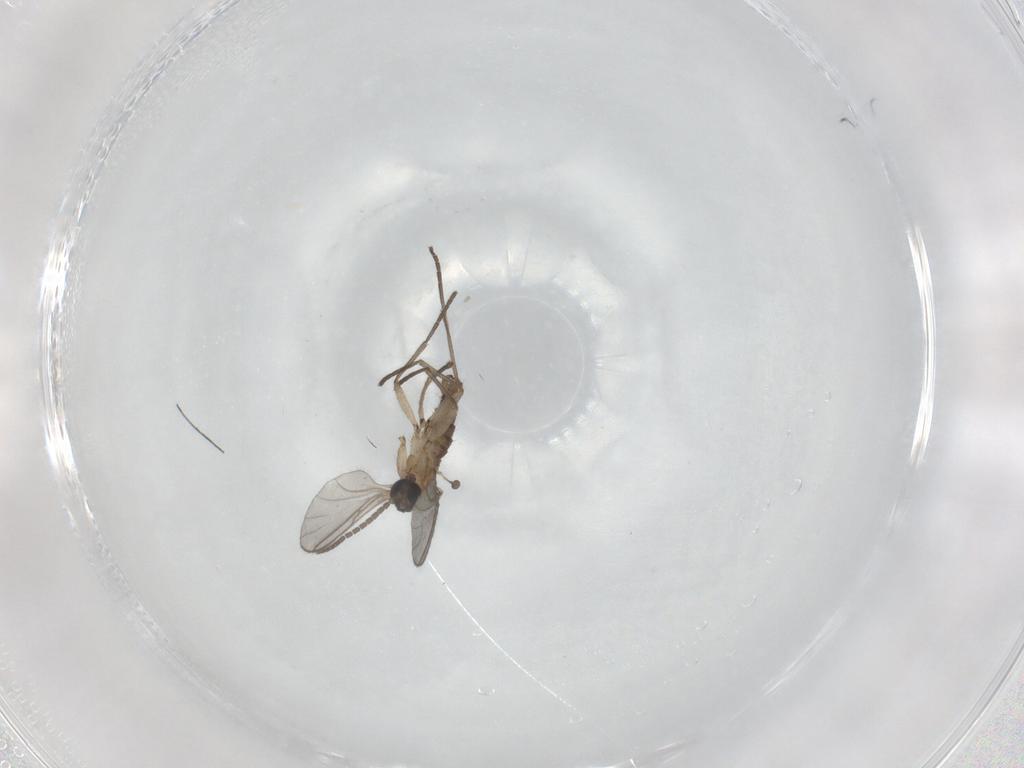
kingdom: Animalia
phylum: Arthropoda
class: Insecta
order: Diptera
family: Sciaridae
